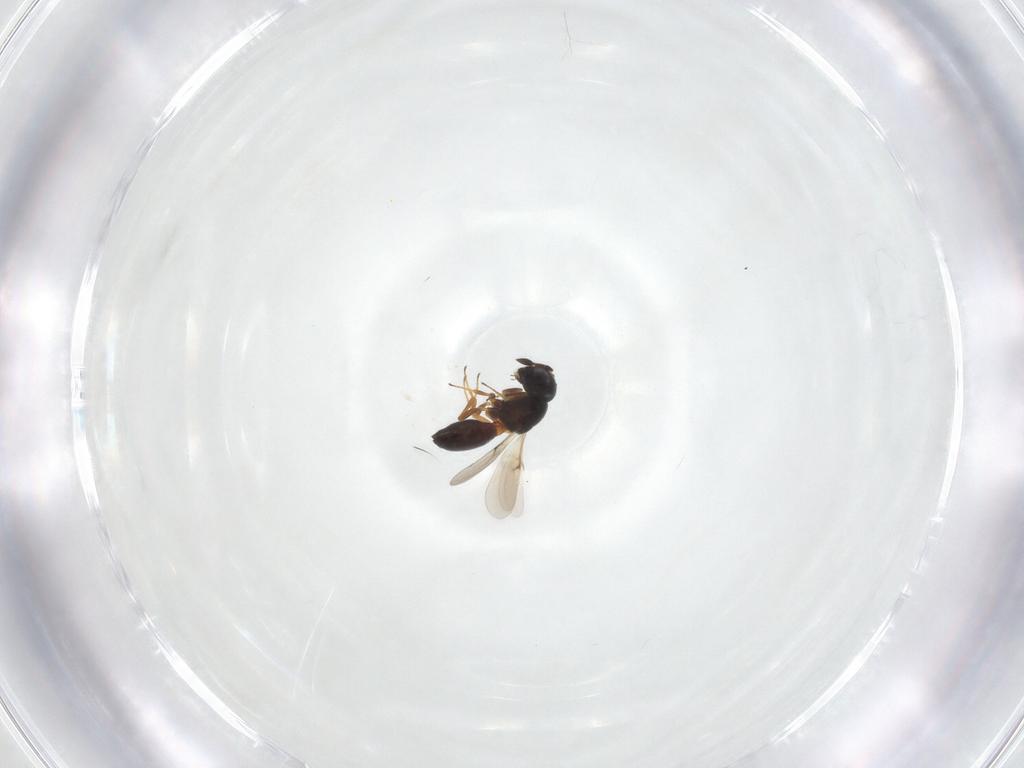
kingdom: Animalia
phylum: Arthropoda
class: Insecta
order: Hymenoptera
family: Scelionidae
